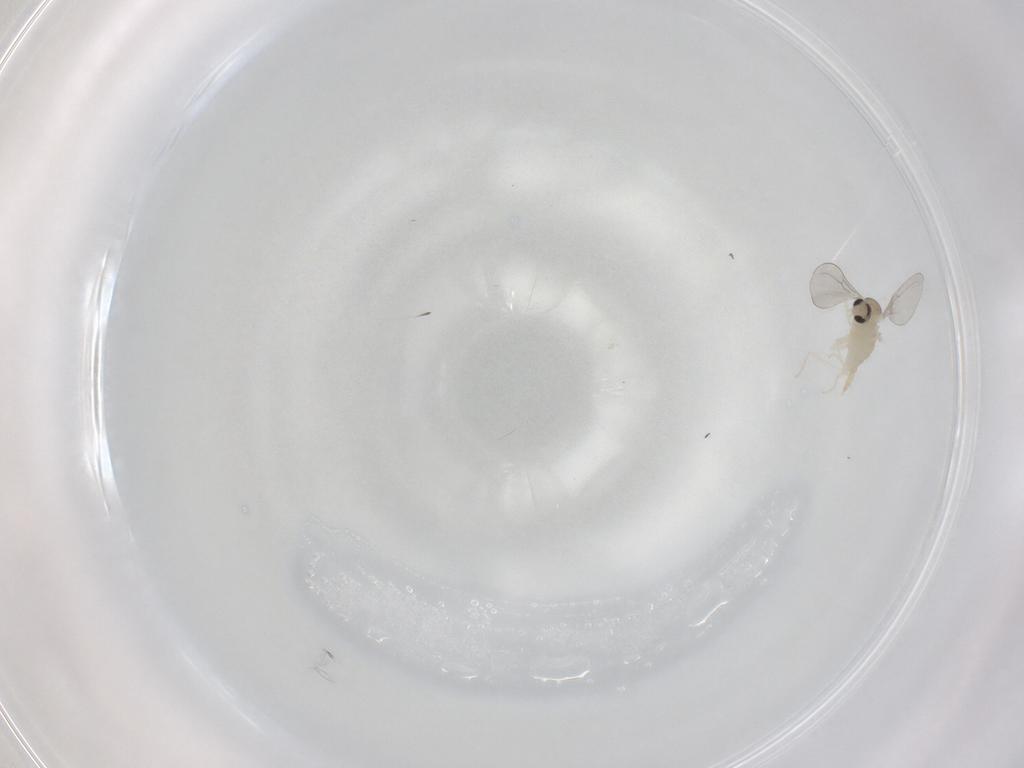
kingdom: Animalia
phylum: Arthropoda
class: Insecta
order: Diptera
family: Cecidomyiidae
